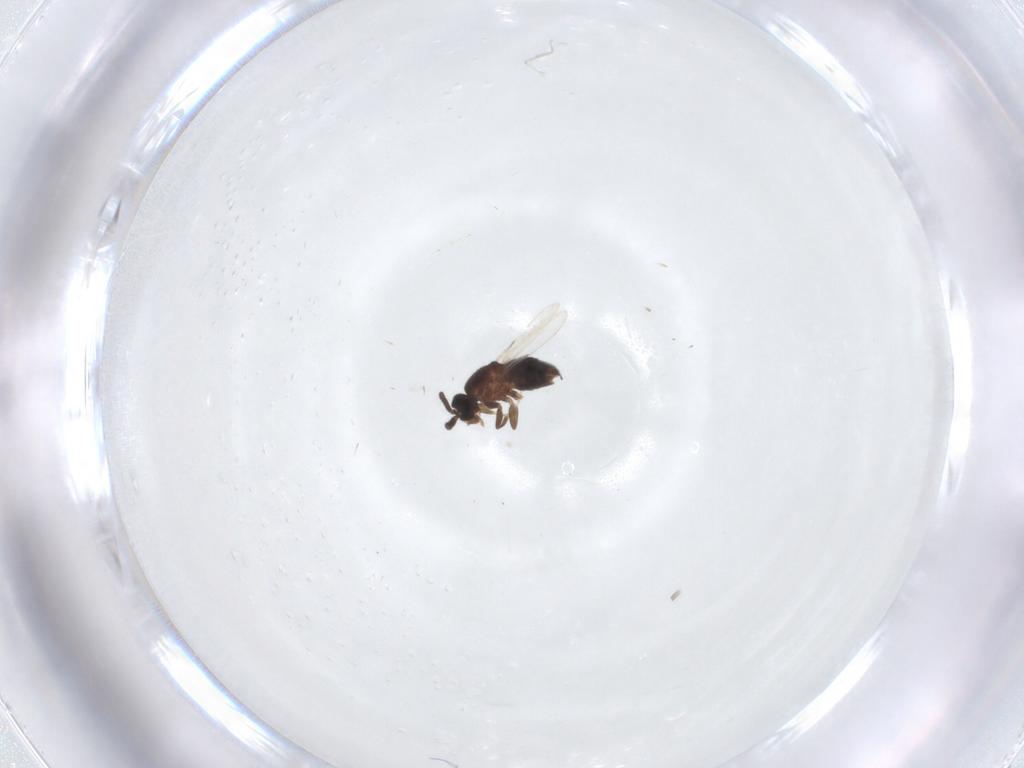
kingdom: Animalia
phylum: Arthropoda
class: Insecta
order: Diptera
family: Scatopsidae
